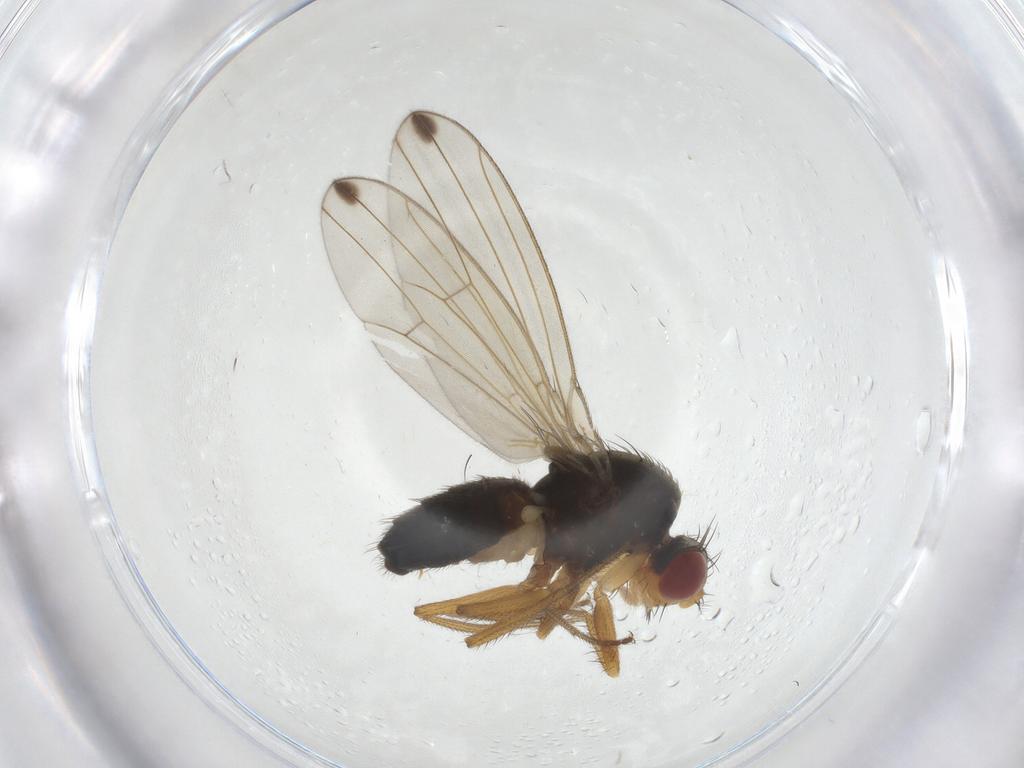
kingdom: Animalia
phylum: Arthropoda
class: Insecta
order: Diptera
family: Drosophilidae
